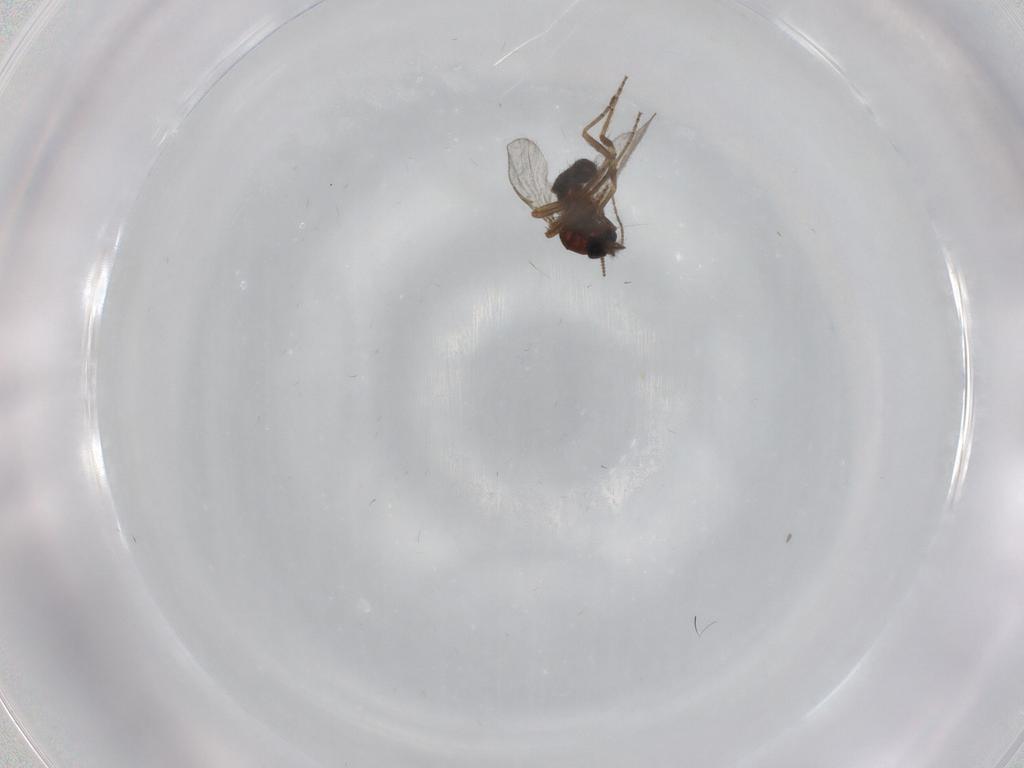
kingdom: Animalia
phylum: Arthropoda
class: Insecta
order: Diptera
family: Ceratopogonidae
